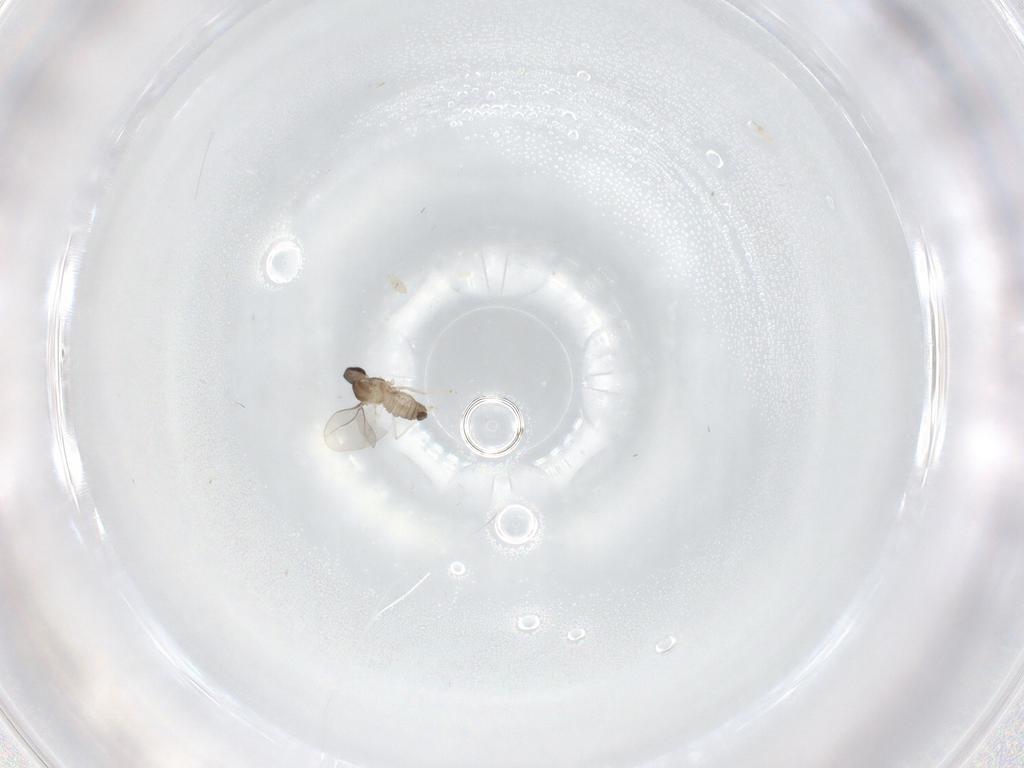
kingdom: Animalia
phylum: Arthropoda
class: Insecta
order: Diptera
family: Cecidomyiidae
